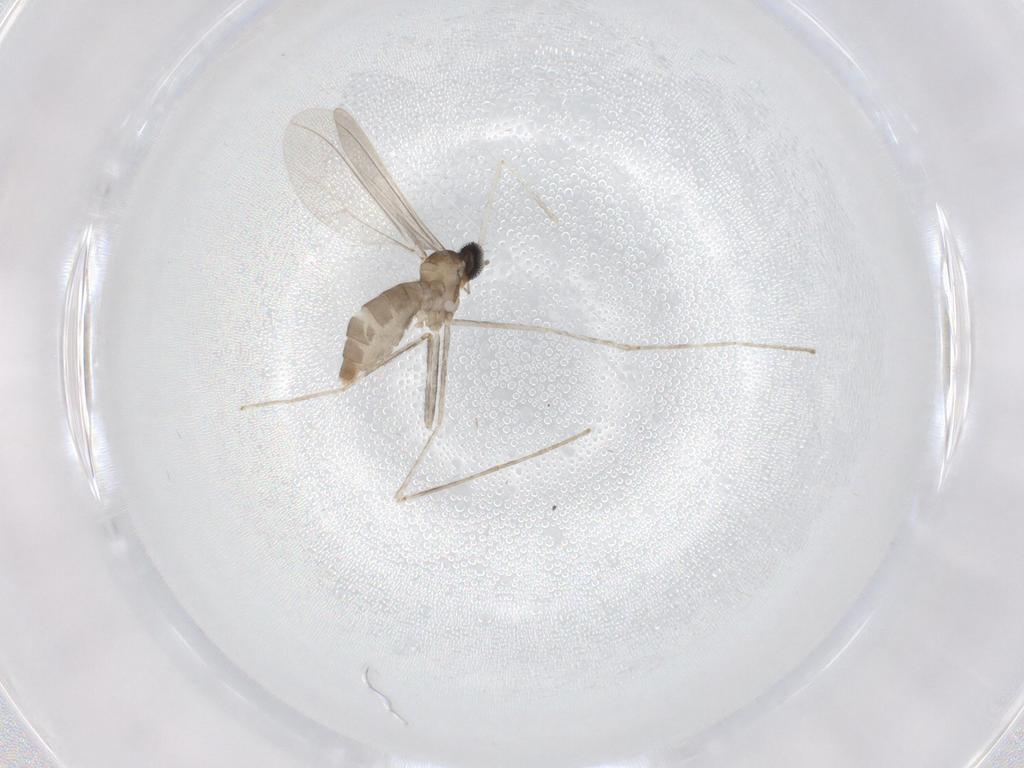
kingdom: Animalia
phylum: Arthropoda
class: Insecta
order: Diptera
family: Cecidomyiidae
